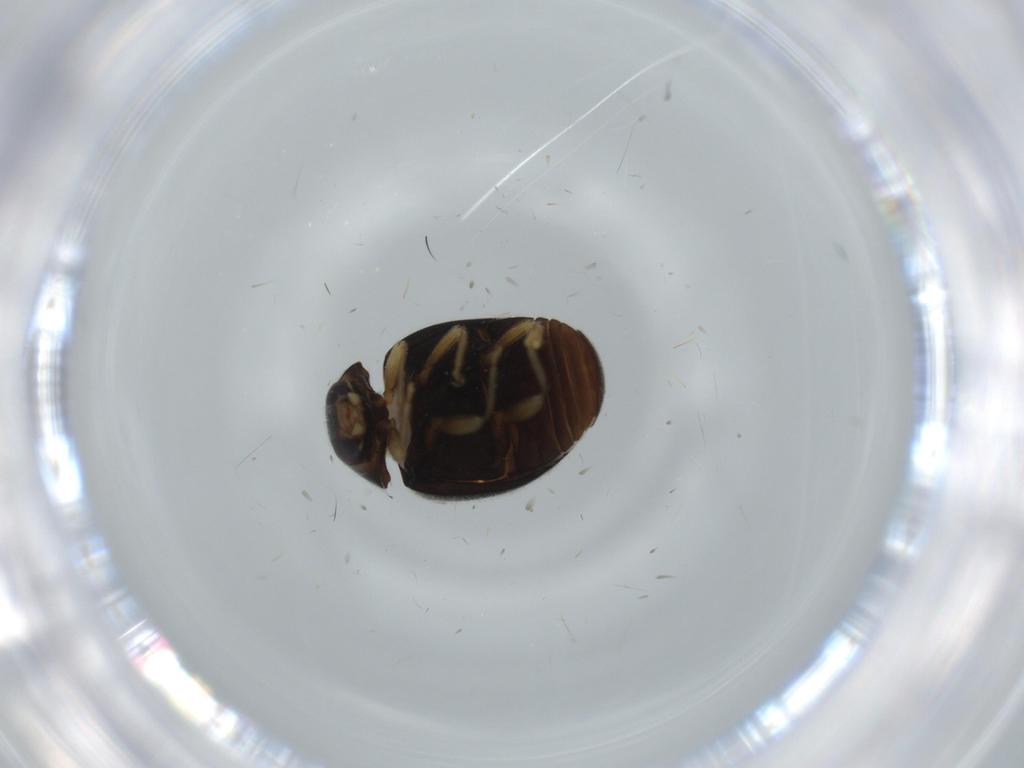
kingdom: Animalia
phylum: Arthropoda
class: Insecta
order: Coleoptera
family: Coccinellidae
